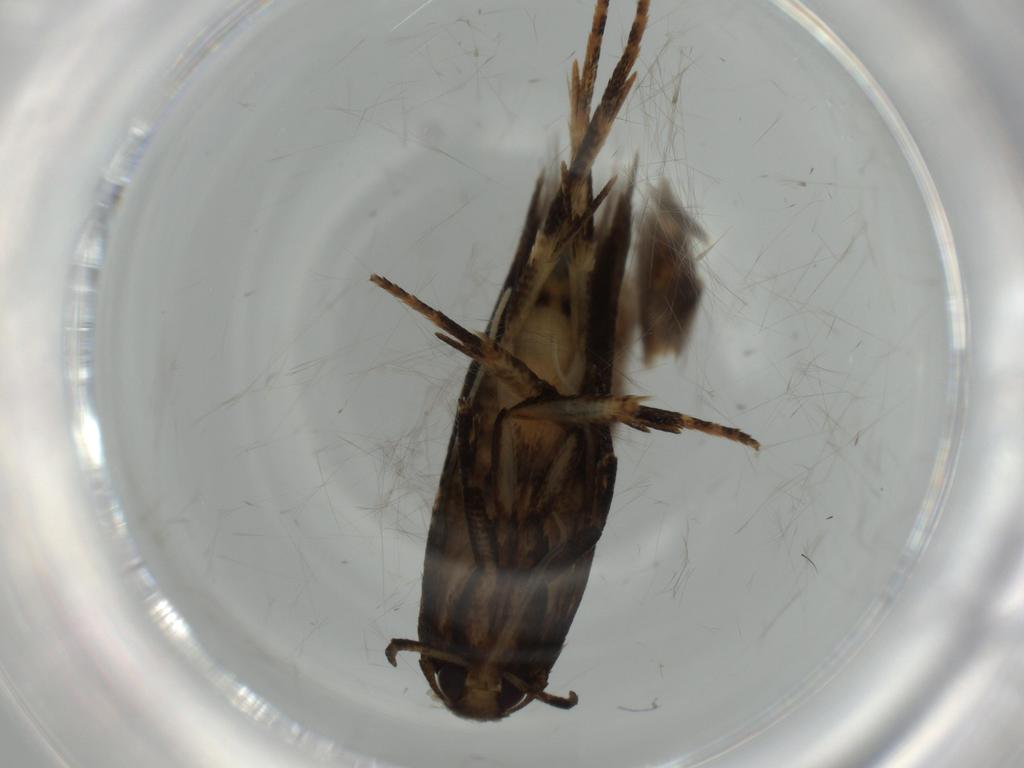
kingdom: Animalia
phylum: Arthropoda
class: Insecta
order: Lepidoptera
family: Cosmopterigidae
